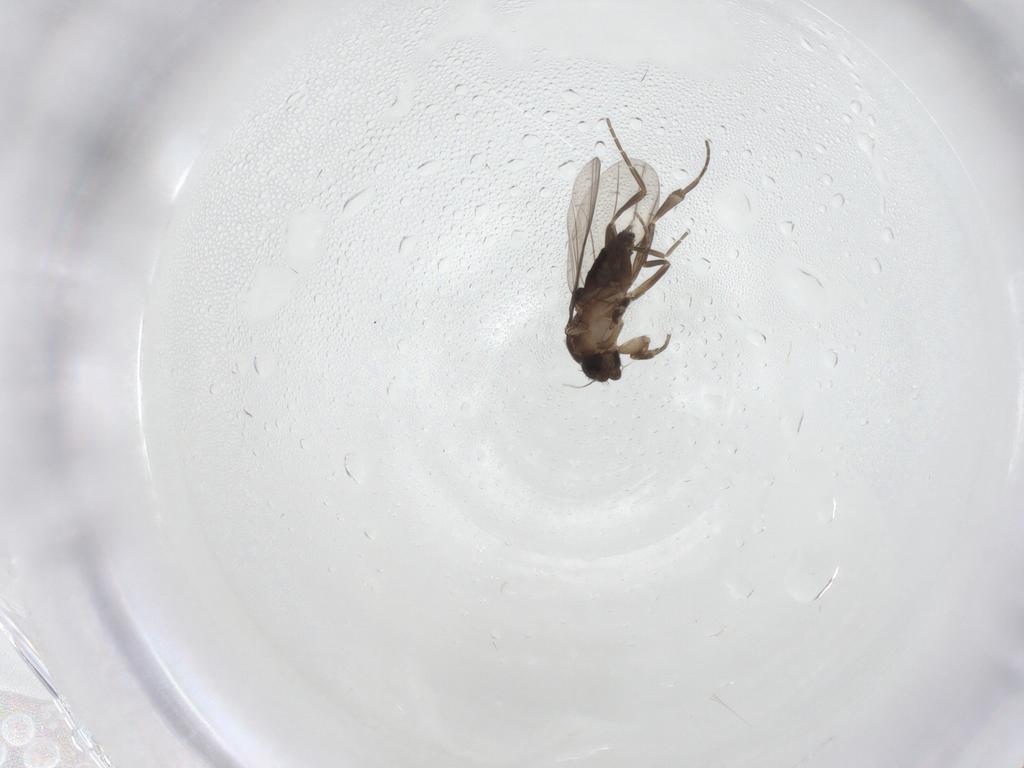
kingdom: Animalia
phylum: Arthropoda
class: Insecta
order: Diptera
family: Phoridae
